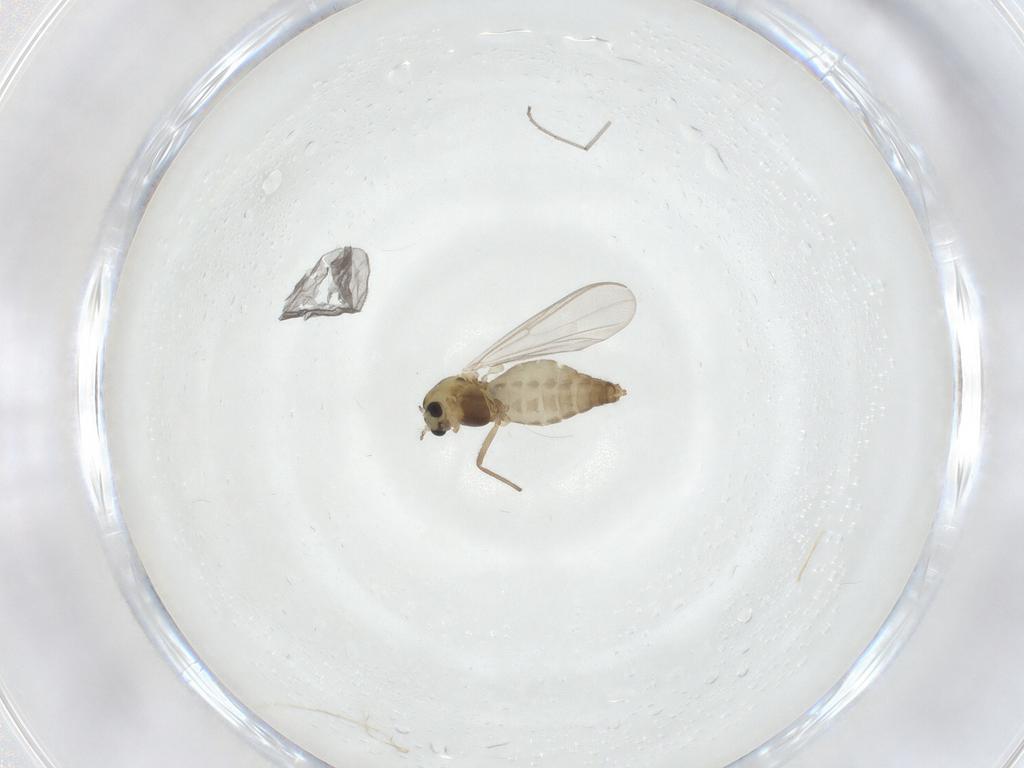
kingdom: Animalia
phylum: Arthropoda
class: Insecta
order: Diptera
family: Chironomidae
